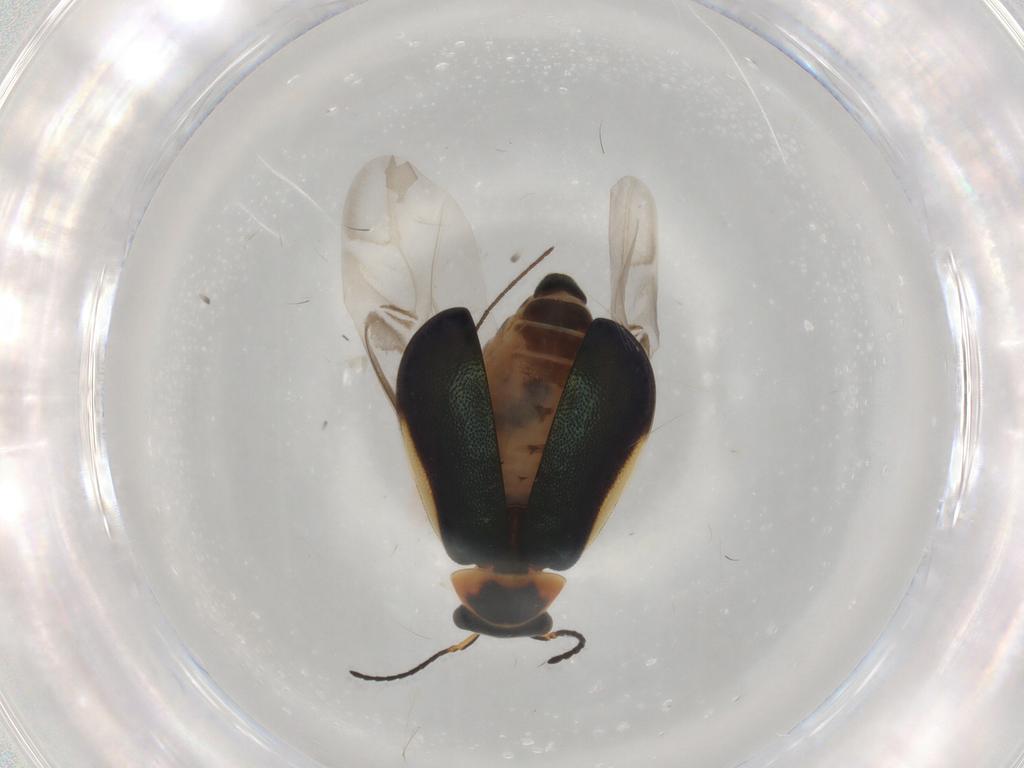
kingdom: Animalia
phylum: Arthropoda
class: Insecta
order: Coleoptera
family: Melyridae
